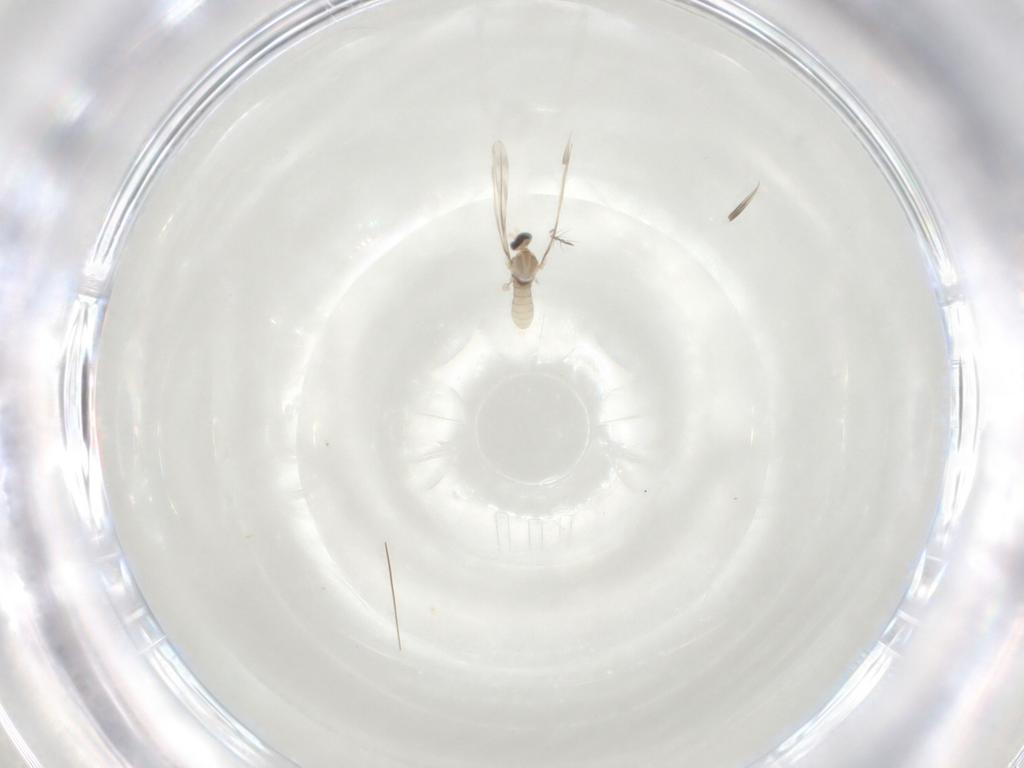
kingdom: Animalia
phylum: Arthropoda
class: Insecta
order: Diptera
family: Cecidomyiidae
